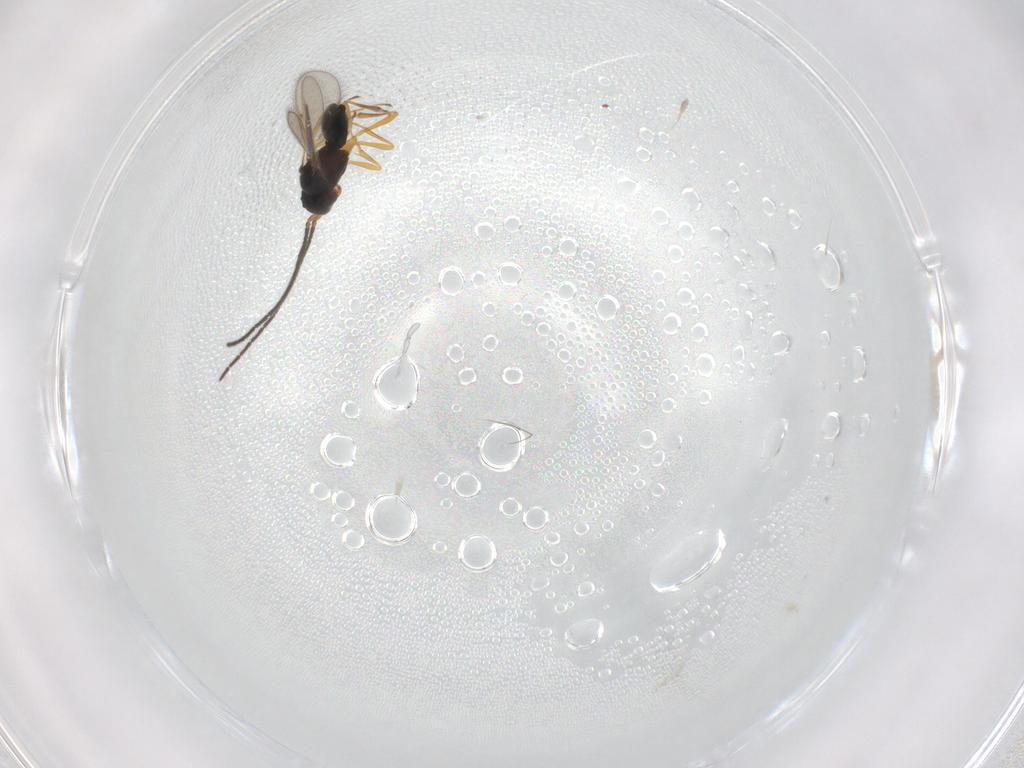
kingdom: Animalia
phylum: Arthropoda
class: Insecta
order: Hymenoptera
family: Scelionidae
